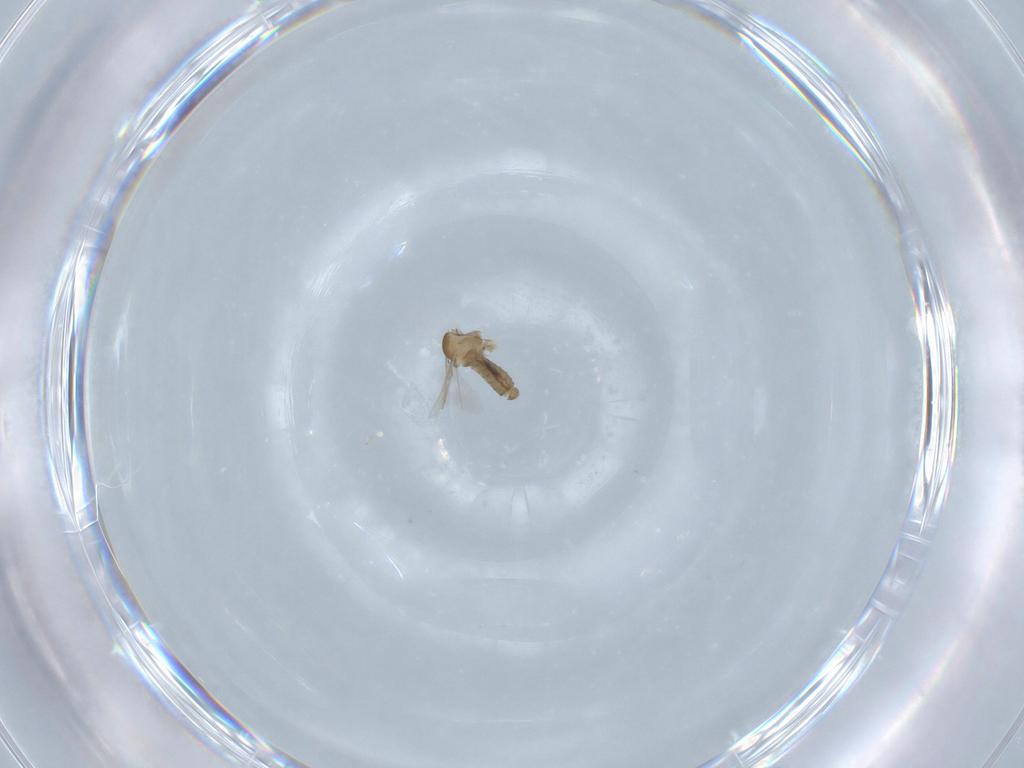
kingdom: Animalia
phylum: Arthropoda
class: Insecta
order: Diptera
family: Cecidomyiidae
